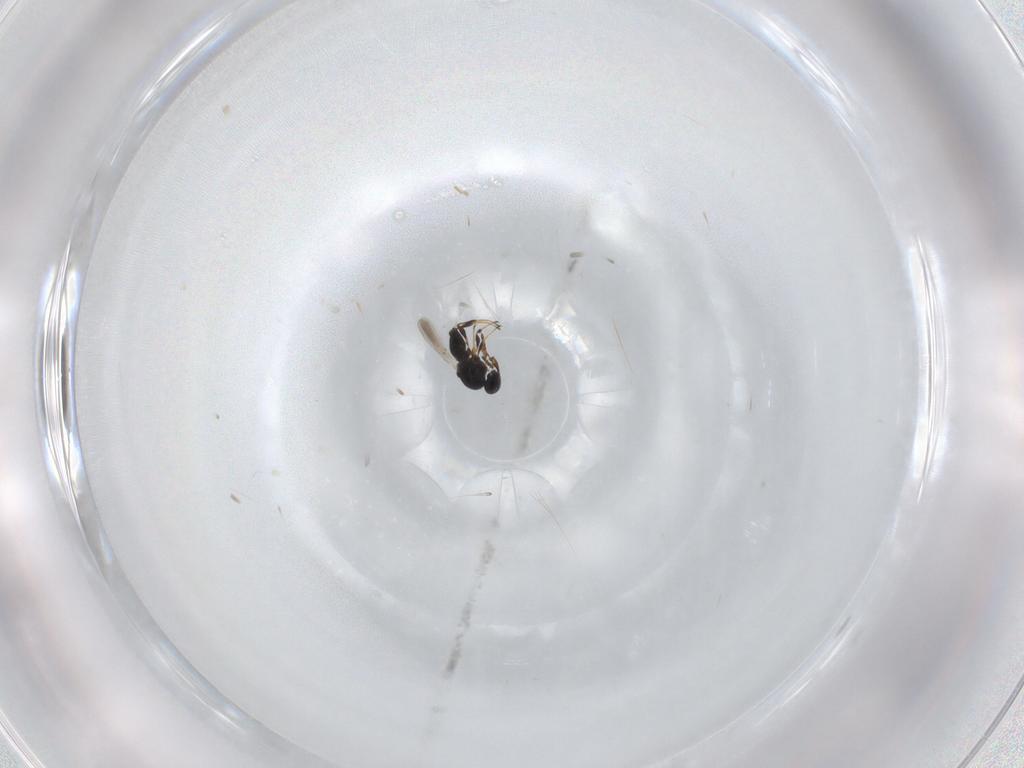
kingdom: Animalia
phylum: Arthropoda
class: Insecta
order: Hymenoptera
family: Platygastridae
